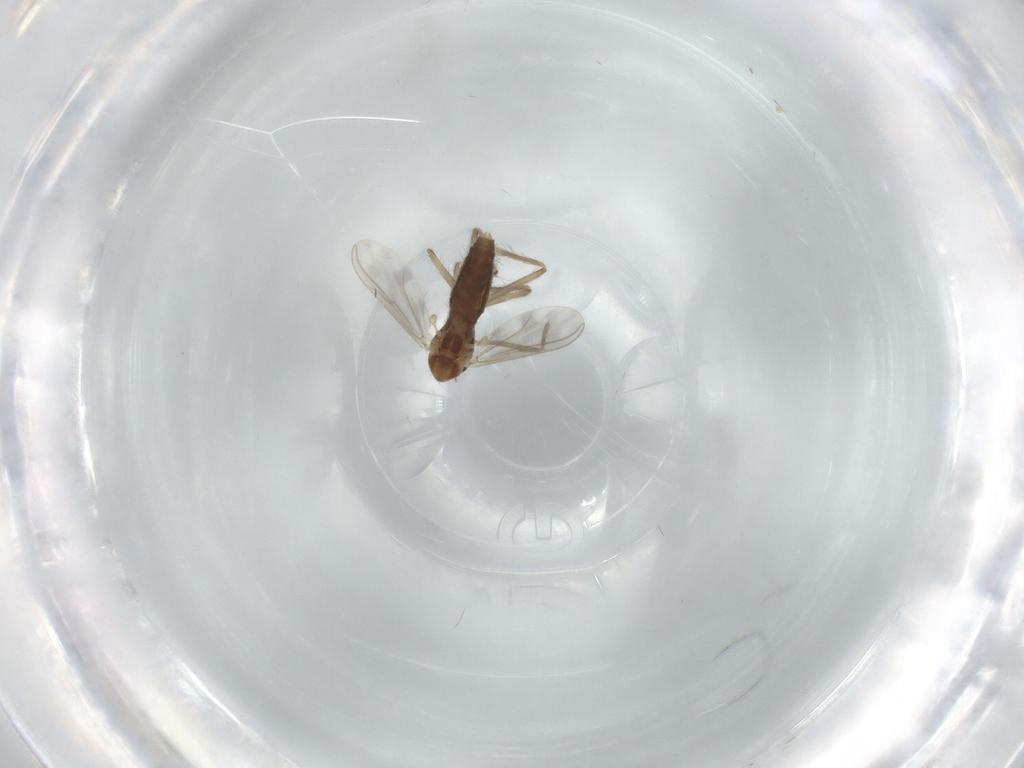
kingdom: Animalia
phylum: Arthropoda
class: Insecta
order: Diptera
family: Chironomidae
